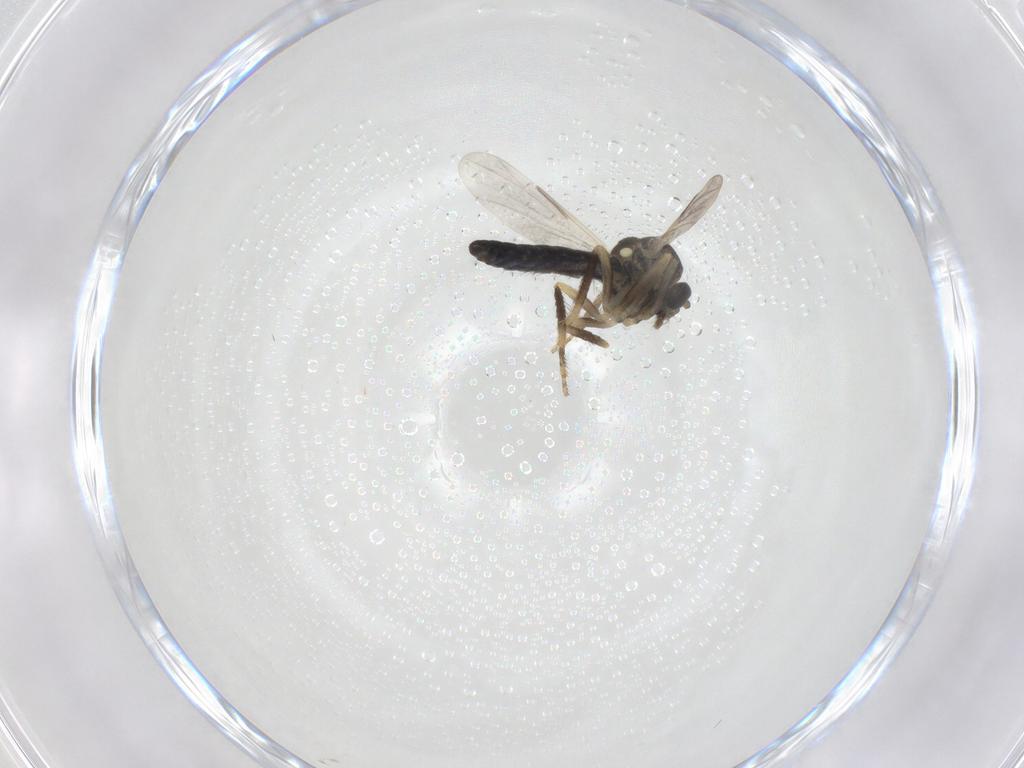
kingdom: Animalia
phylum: Arthropoda
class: Insecta
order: Diptera
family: Ceratopogonidae
